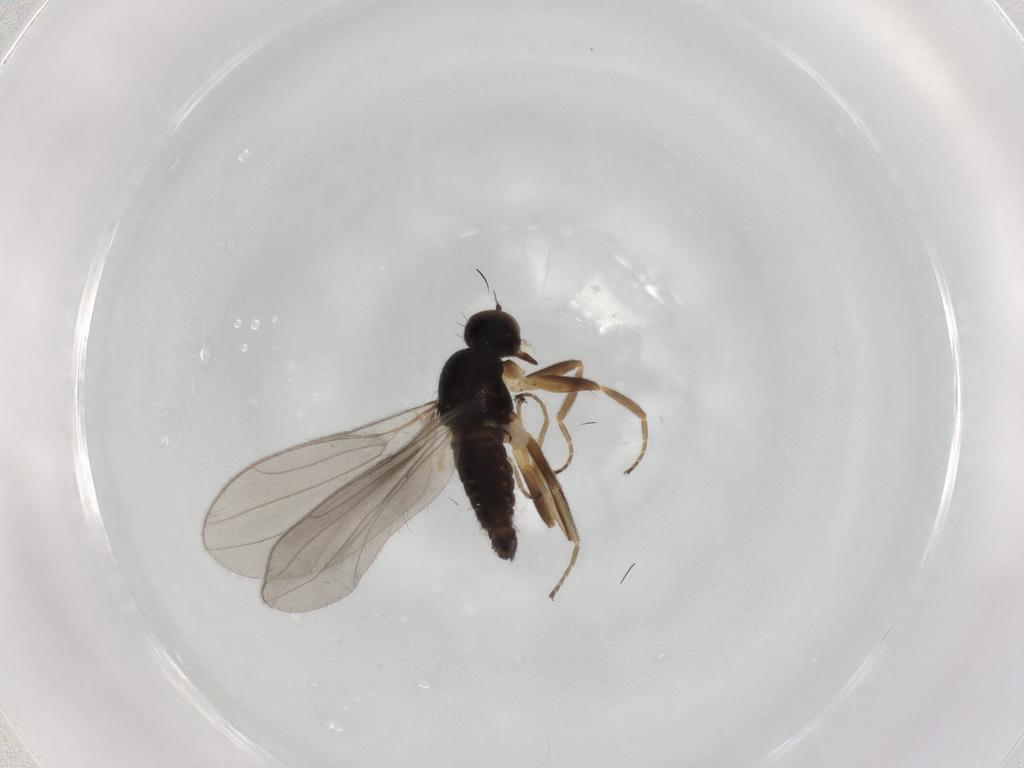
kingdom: Animalia
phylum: Arthropoda
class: Insecta
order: Diptera
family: Hybotidae
